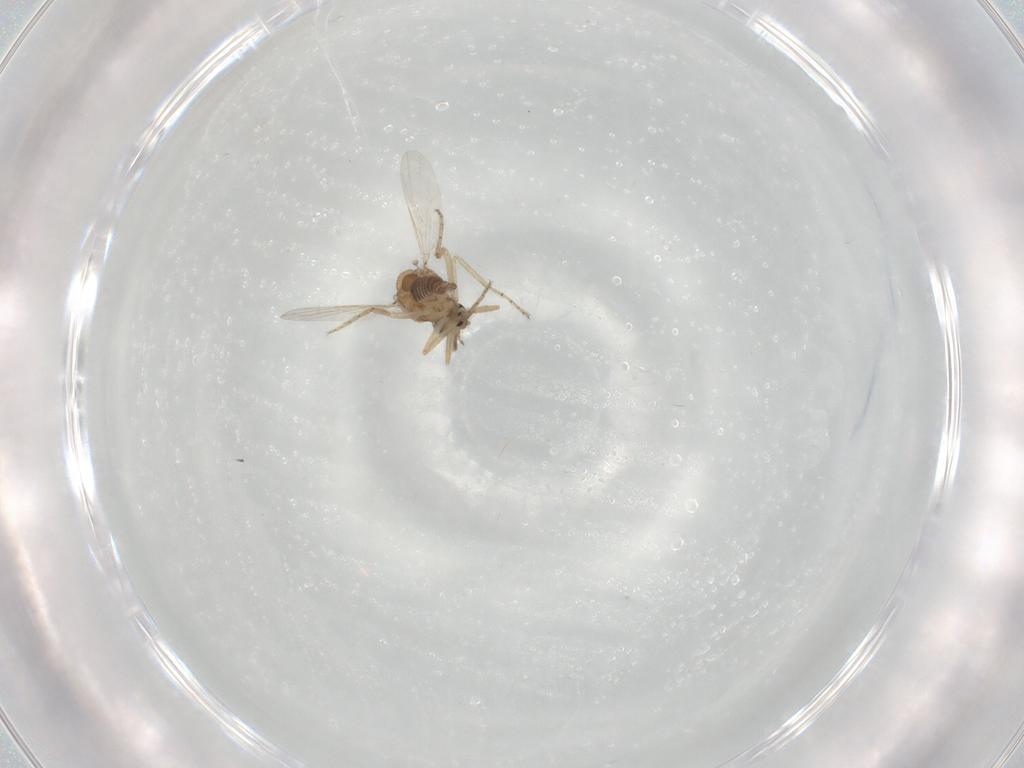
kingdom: Animalia
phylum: Arthropoda
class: Insecta
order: Diptera
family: Ceratopogonidae
